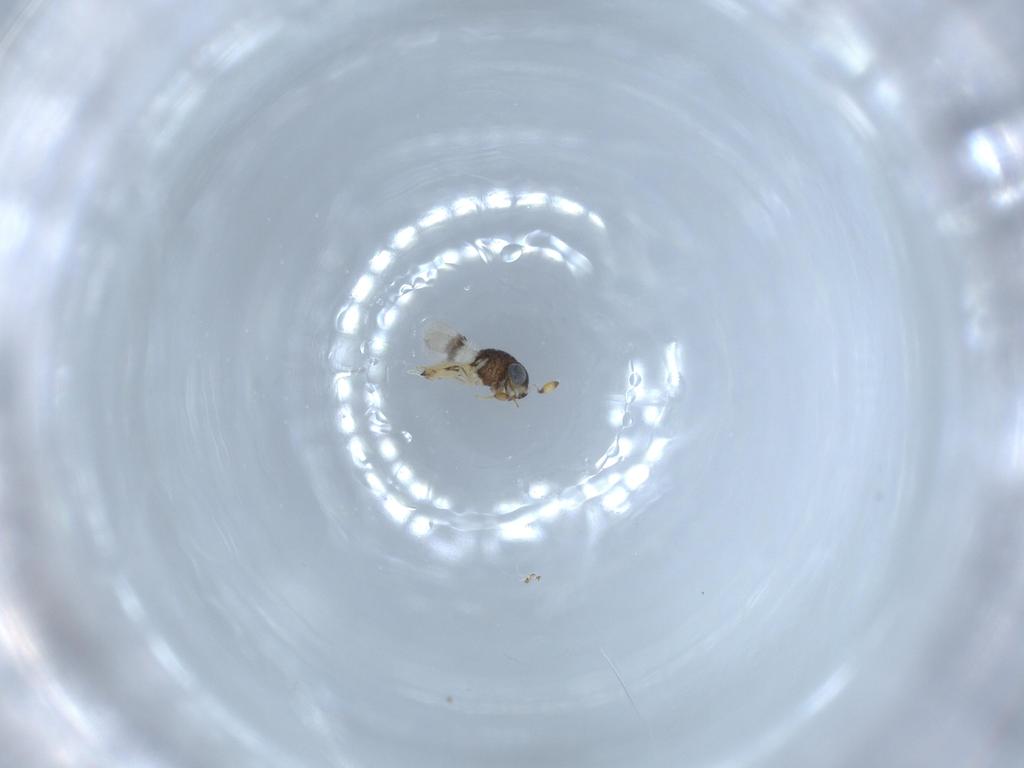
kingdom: Animalia
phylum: Arthropoda
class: Insecta
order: Hymenoptera
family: Scelionidae
